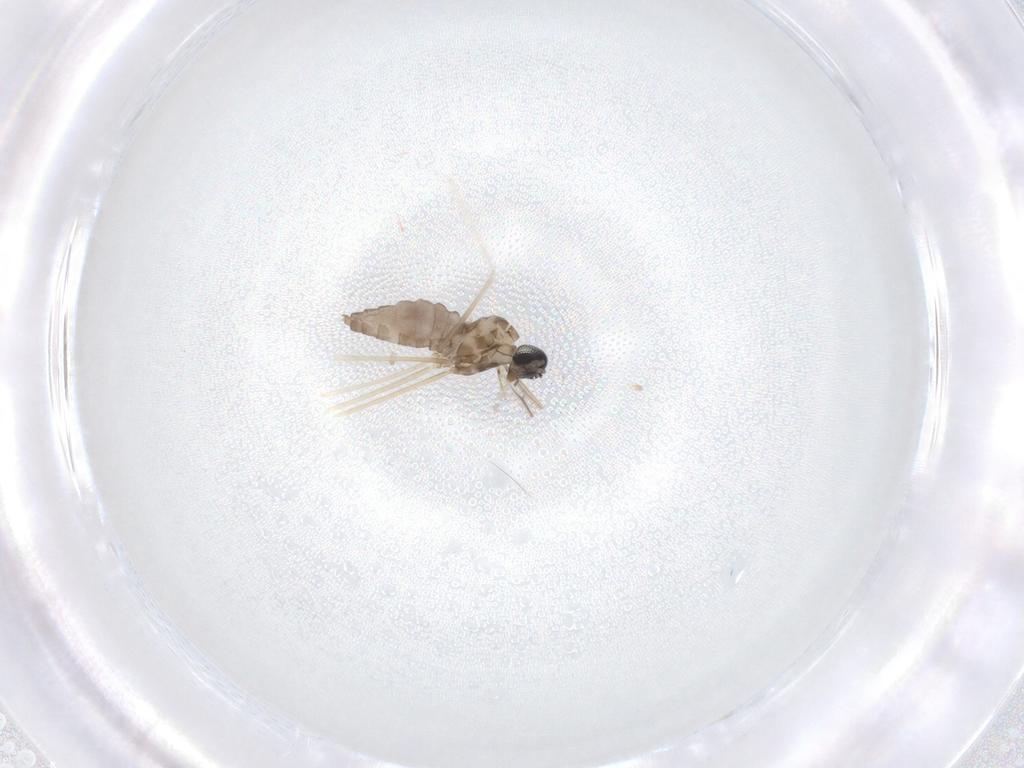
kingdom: Animalia
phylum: Arthropoda
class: Insecta
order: Diptera
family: Cecidomyiidae
